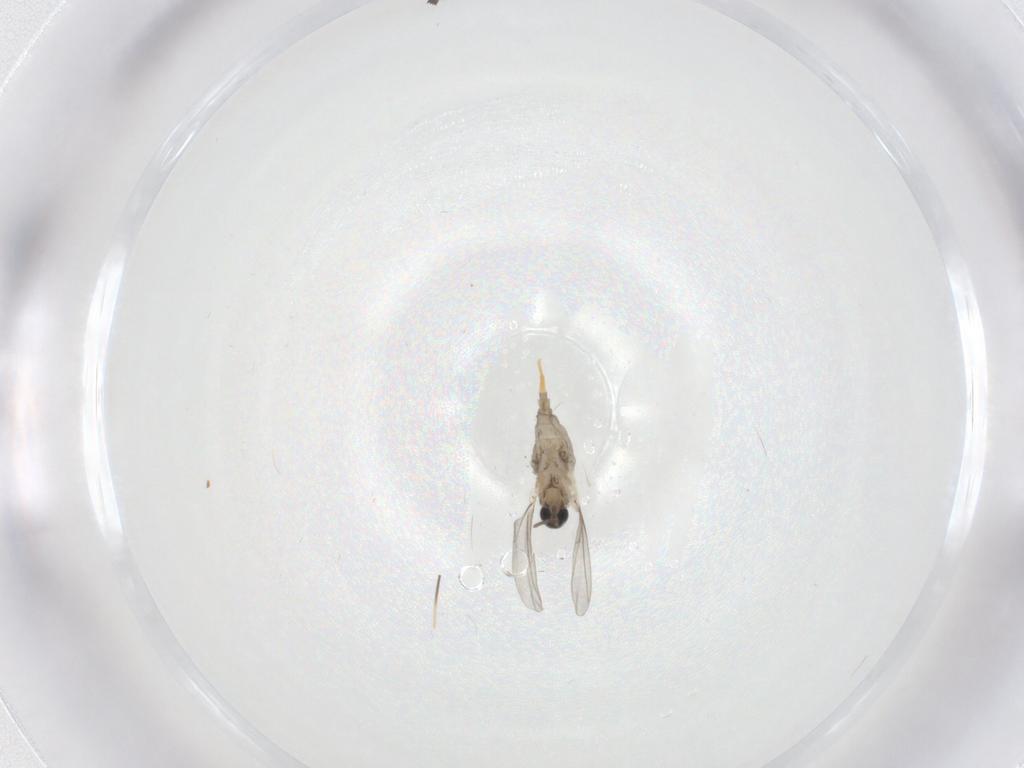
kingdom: Animalia
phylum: Arthropoda
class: Insecta
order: Diptera
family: Cecidomyiidae
